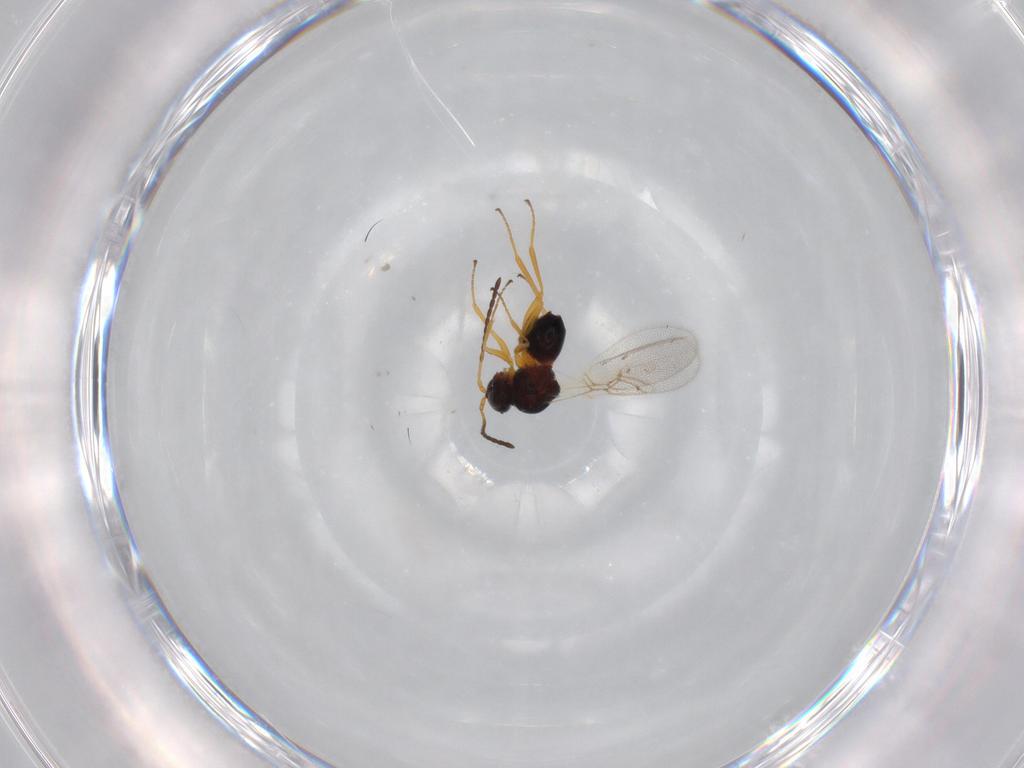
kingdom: Animalia
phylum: Arthropoda
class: Insecta
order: Hymenoptera
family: Figitidae
